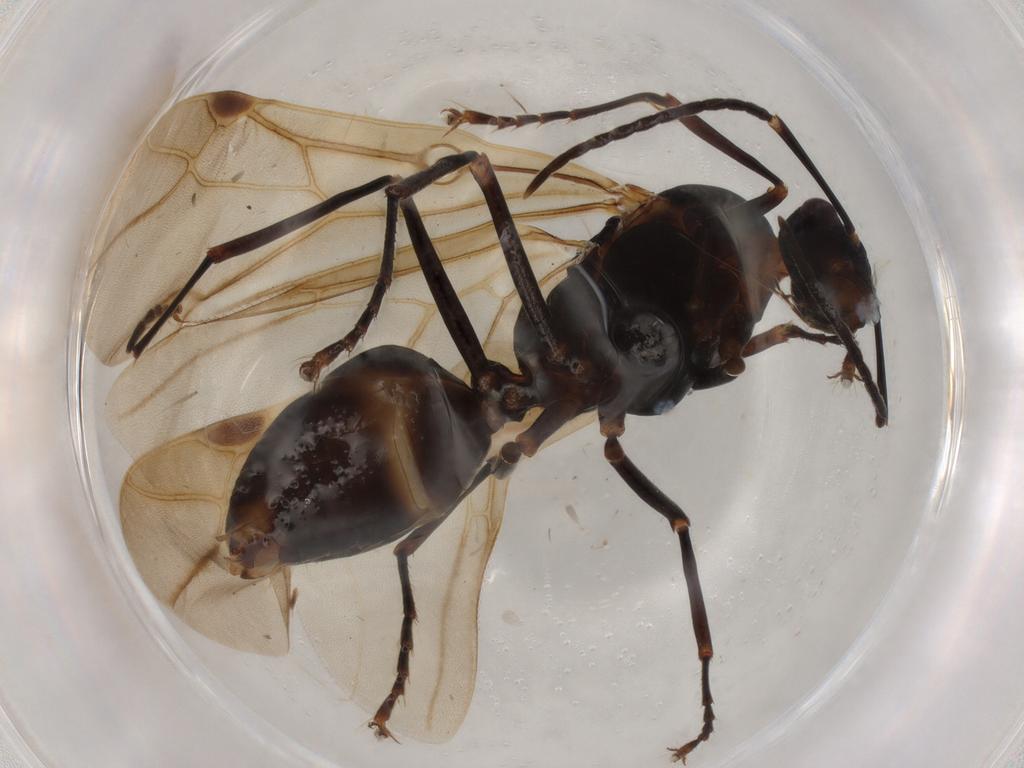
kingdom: Animalia
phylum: Arthropoda
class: Insecta
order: Hymenoptera
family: Formicidae
